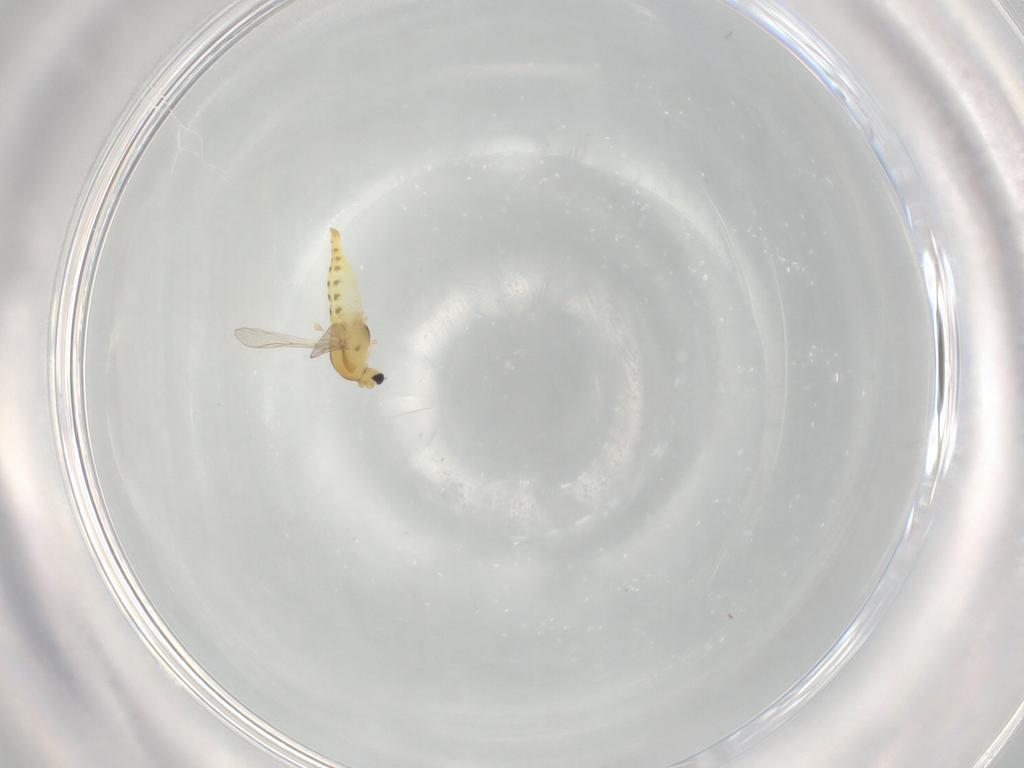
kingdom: Animalia
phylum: Arthropoda
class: Insecta
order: Diptera
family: Chironomidae
